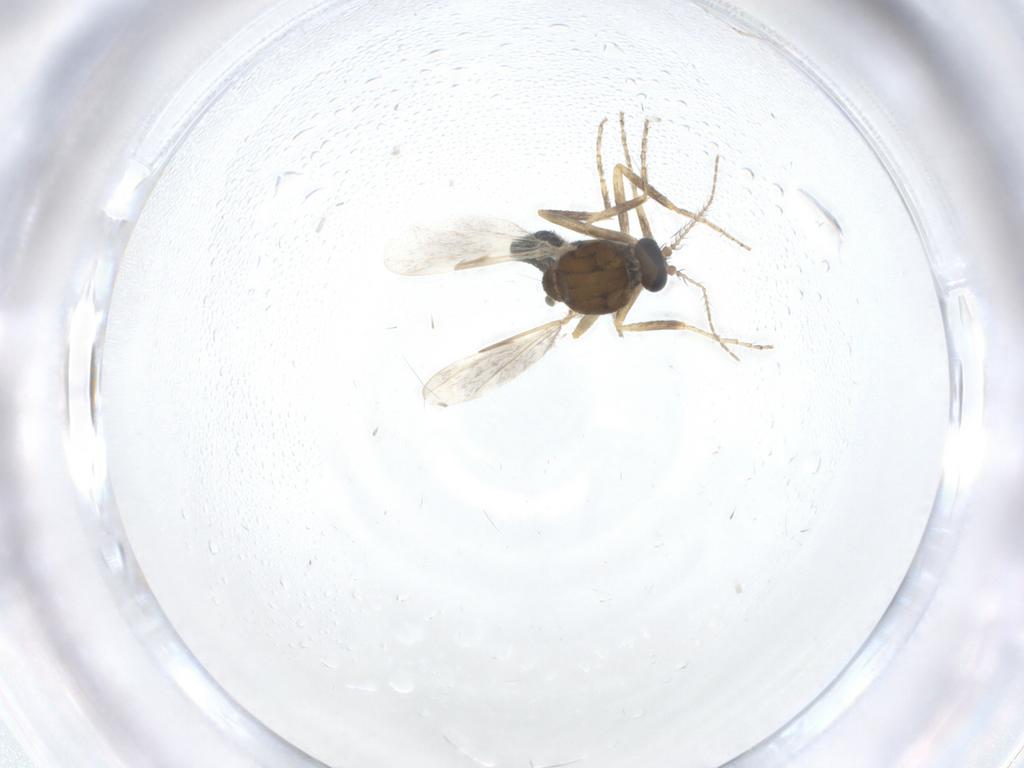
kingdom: Animalia
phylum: Arthropoda
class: Insecta
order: Diptera
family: Ceratopogonidae
